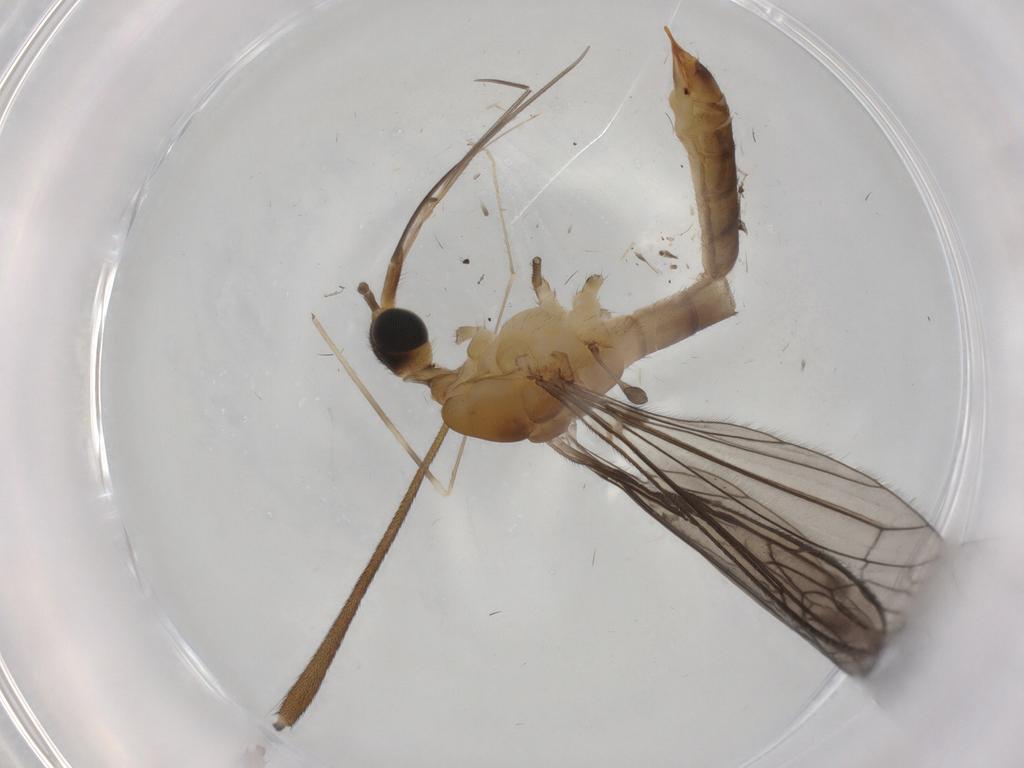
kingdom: Animalia
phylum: Arthropoda
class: Insecta
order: Diptera
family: Limoniidae
